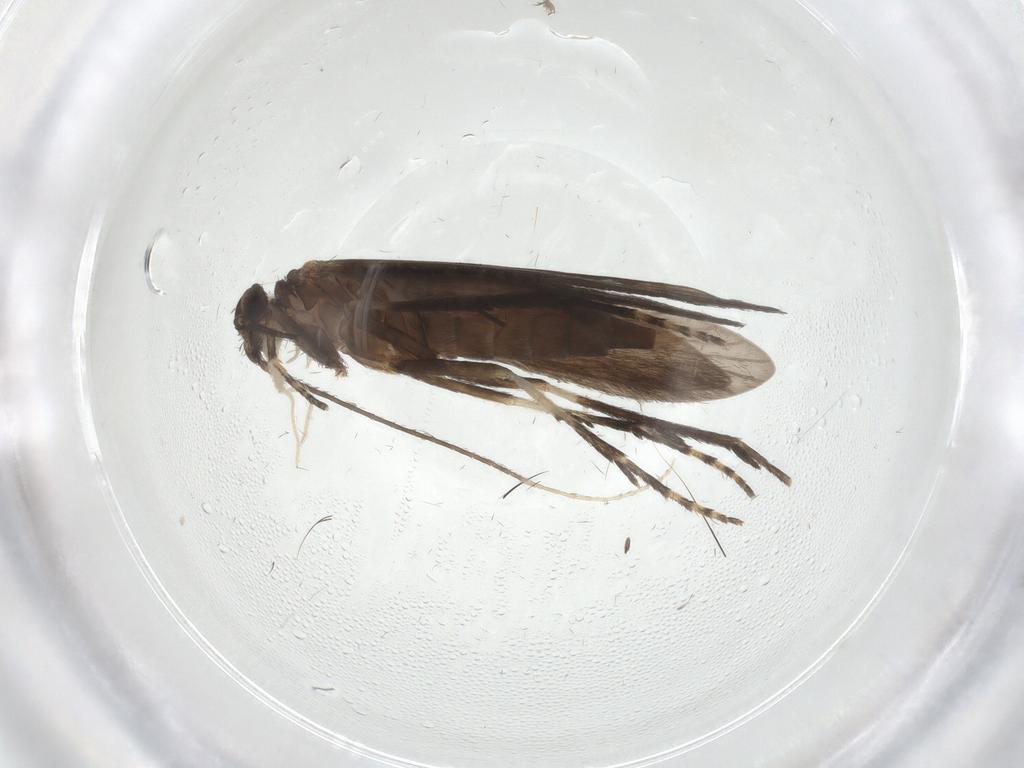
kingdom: Animalia
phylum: Arthropoda
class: Insecta
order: Trichoptera
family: Xiphocentronidae
